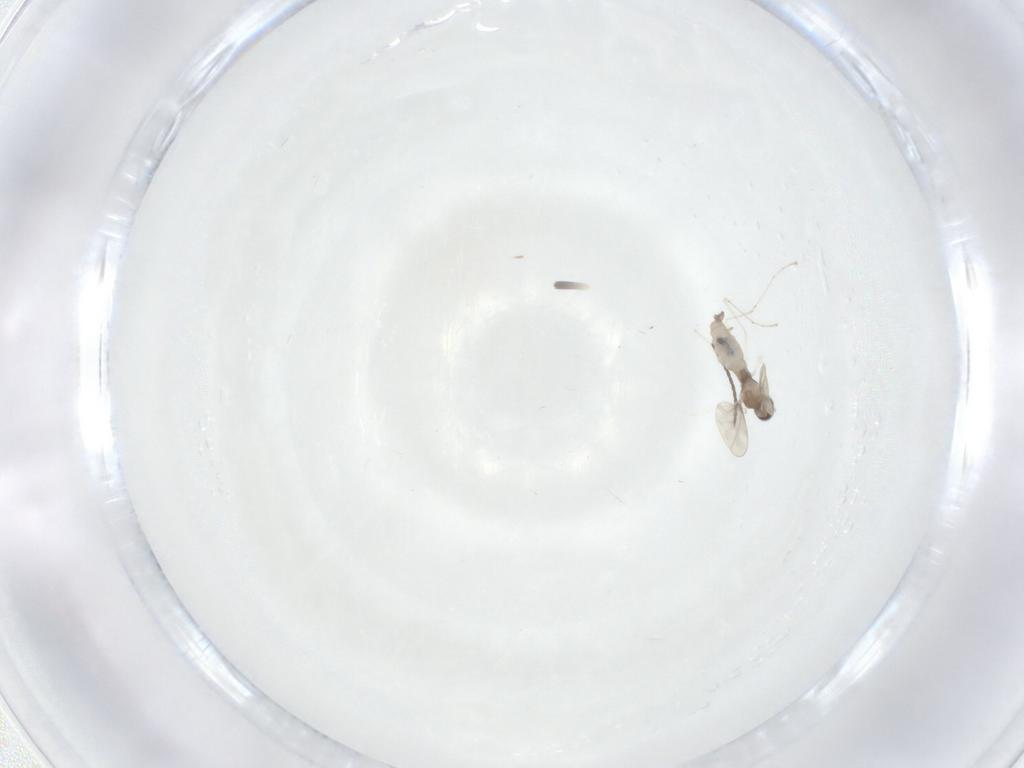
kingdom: Animalia
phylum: Arthropoda
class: Insecta
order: Diptera
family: Cecidomyiidae
